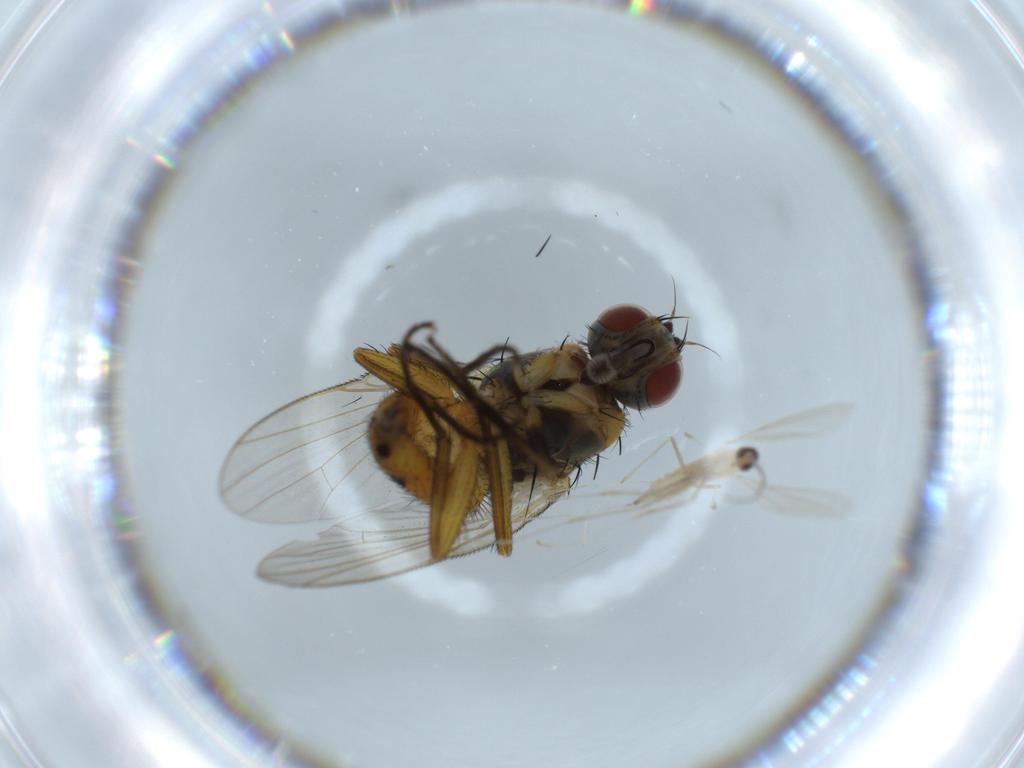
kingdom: Animalia
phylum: Arthropoda
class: Insecta
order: Diptera
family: Muscidae
